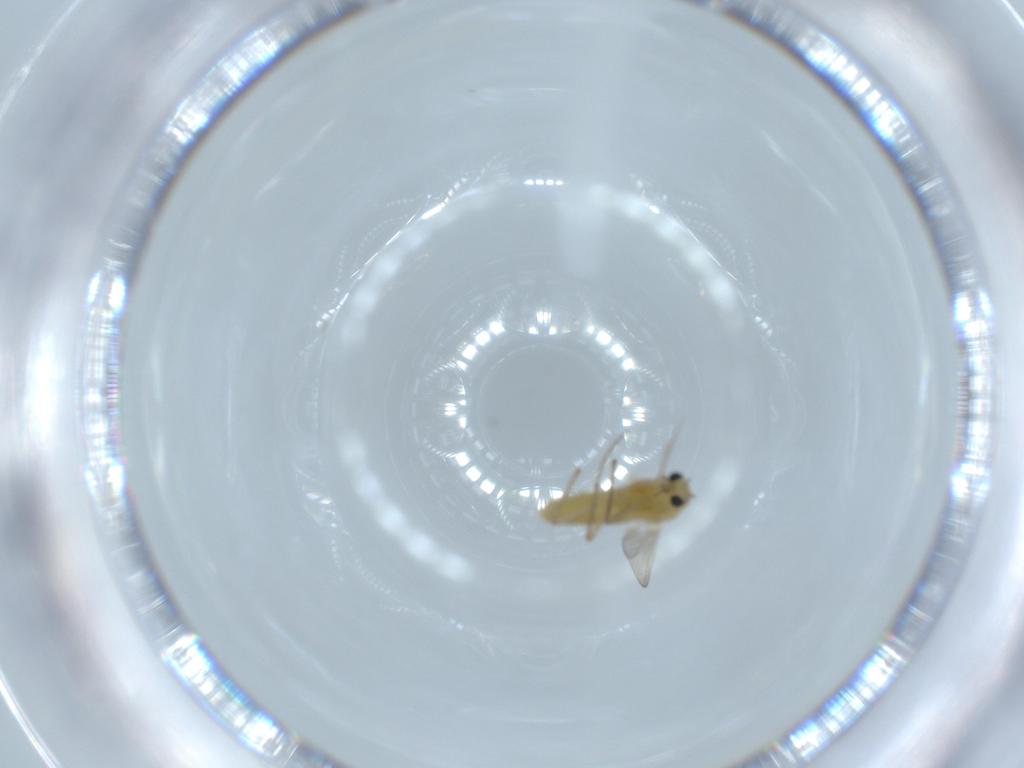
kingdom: Animalia
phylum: Arthropoda
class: Insecta
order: Diptera
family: Chironomidae
